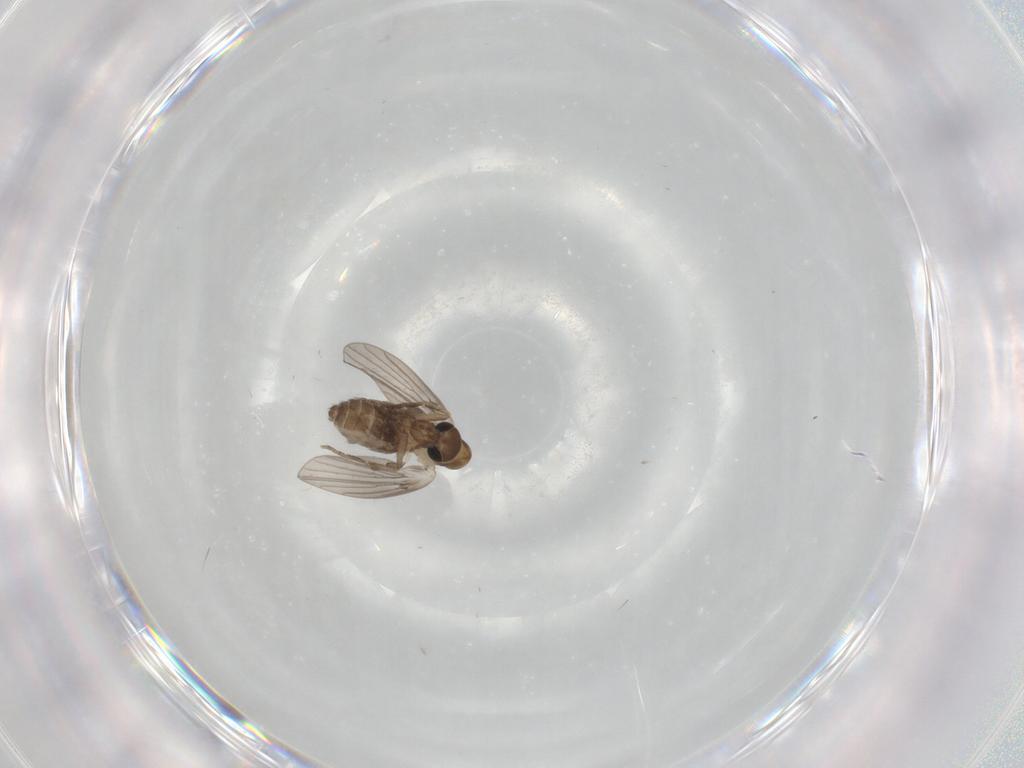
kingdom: Animalia
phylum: Arthropoda
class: Insecta
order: Diptera
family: Psychodidae
